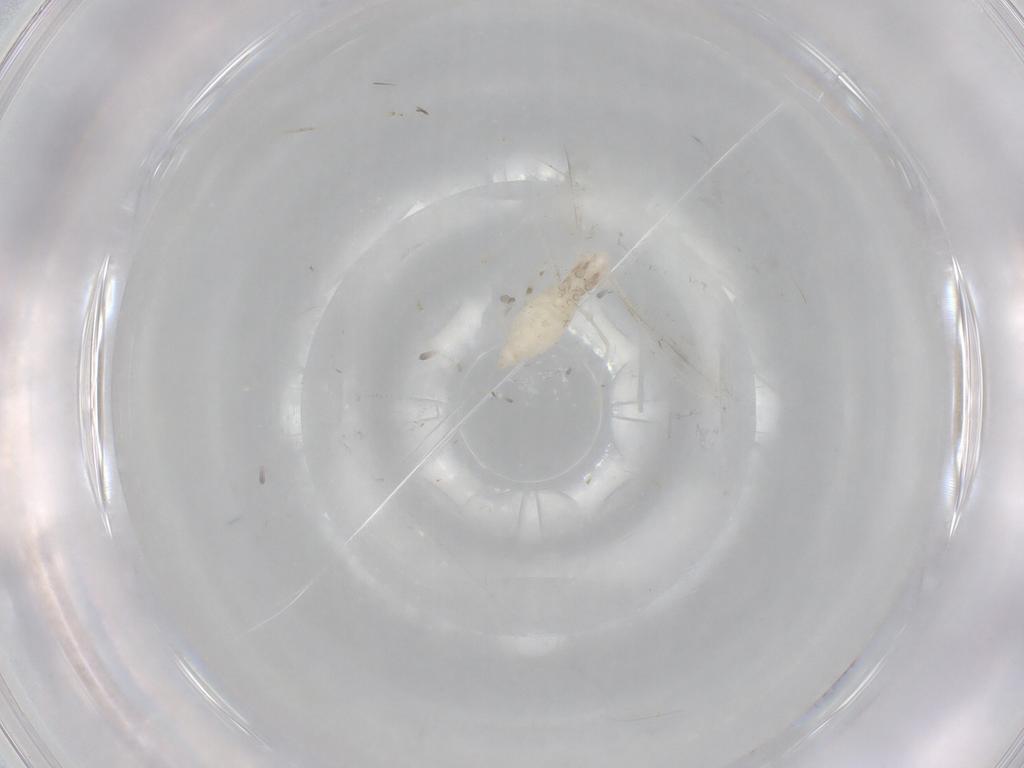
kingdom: Animalia
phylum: Arthropoda
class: Insecta
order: Diptera
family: Cecidomyiidae
